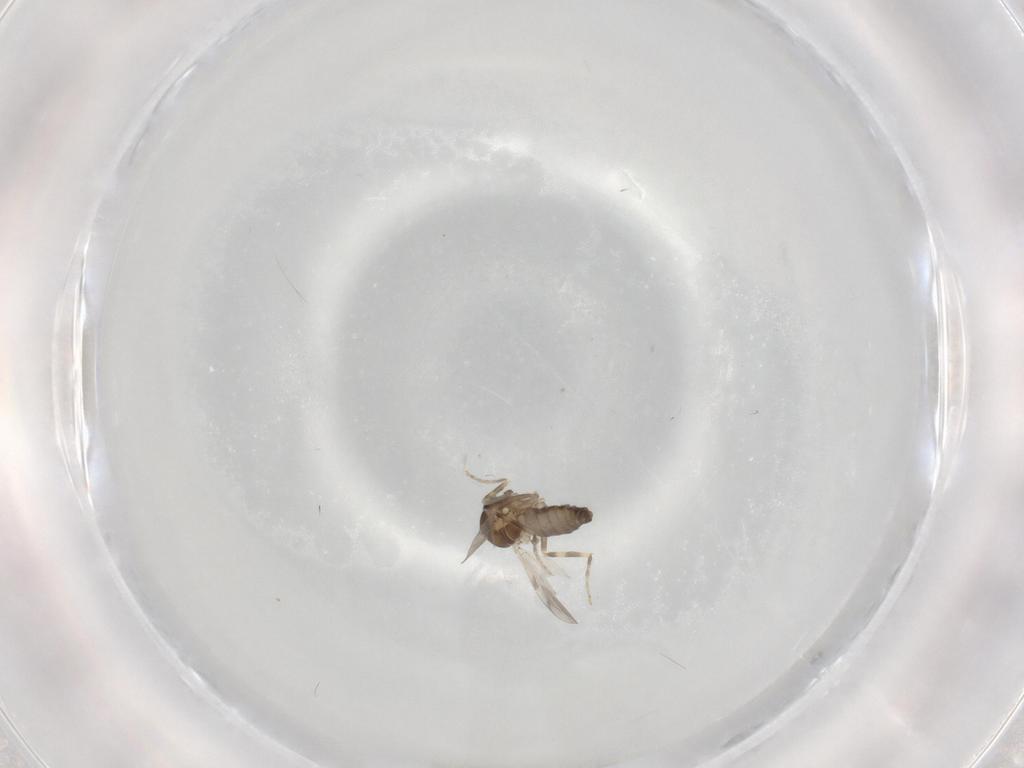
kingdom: Animalia
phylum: Arthropoda
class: Insecta
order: Diptera
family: Ceratopogonidae
